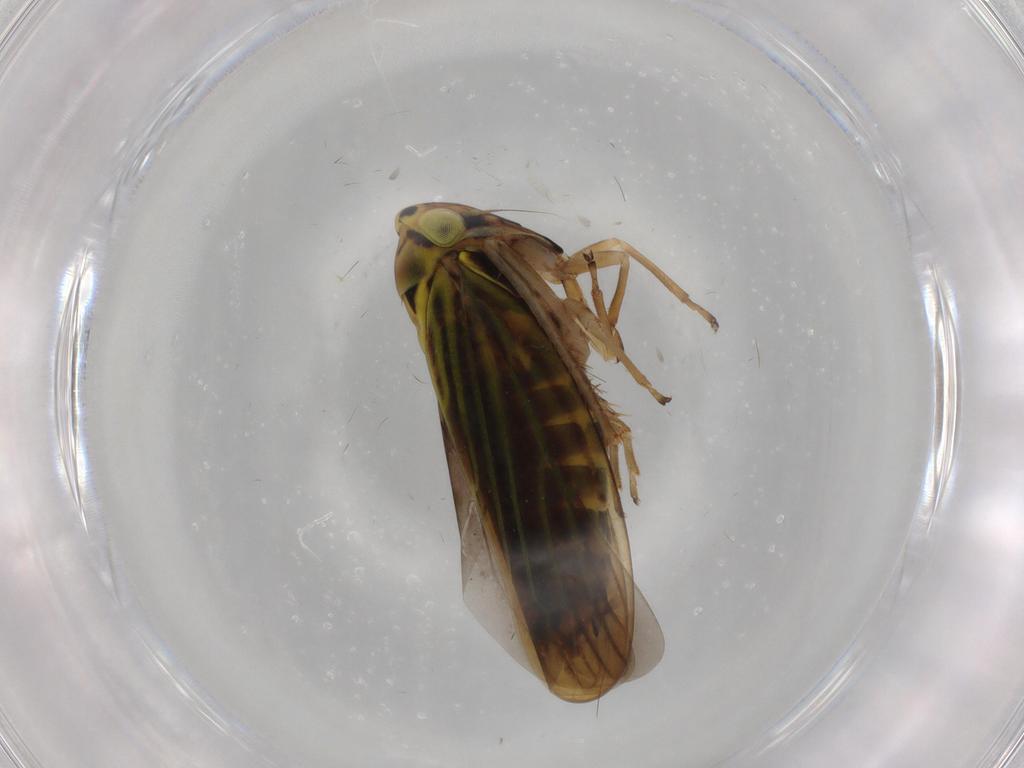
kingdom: Animalia
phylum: Arthropoda
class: Insecta
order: Hemiptera
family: Cicadellidae
